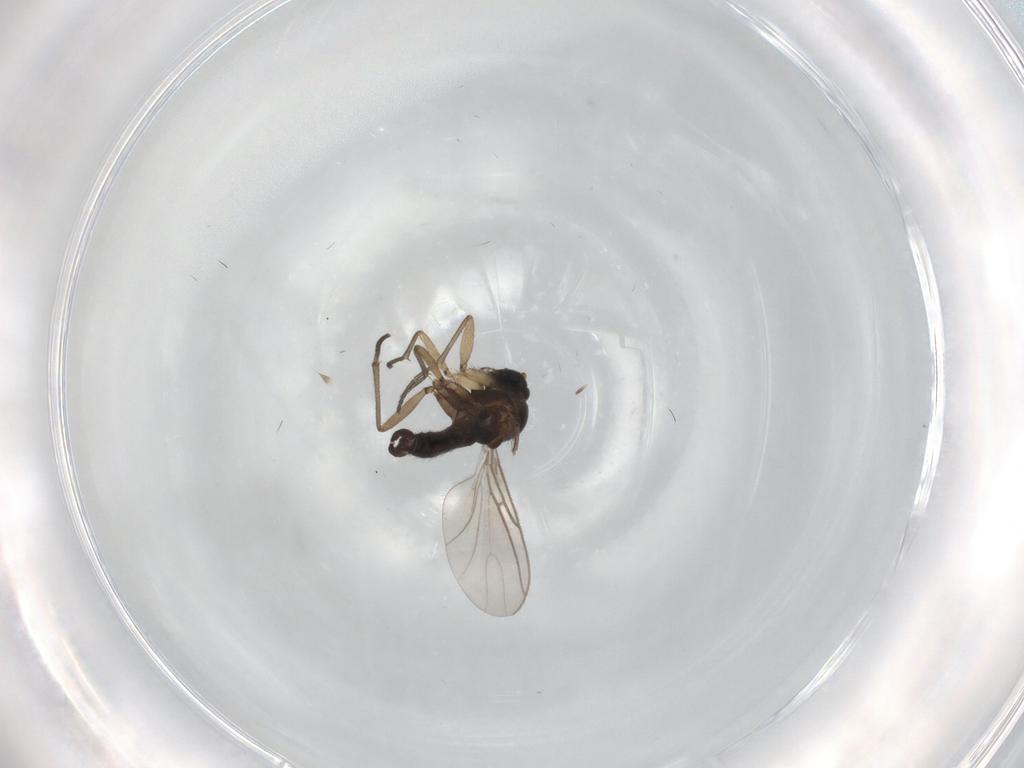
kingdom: Animalia
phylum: Arthropoda
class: Insecta
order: Diptera
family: Sciaridae
